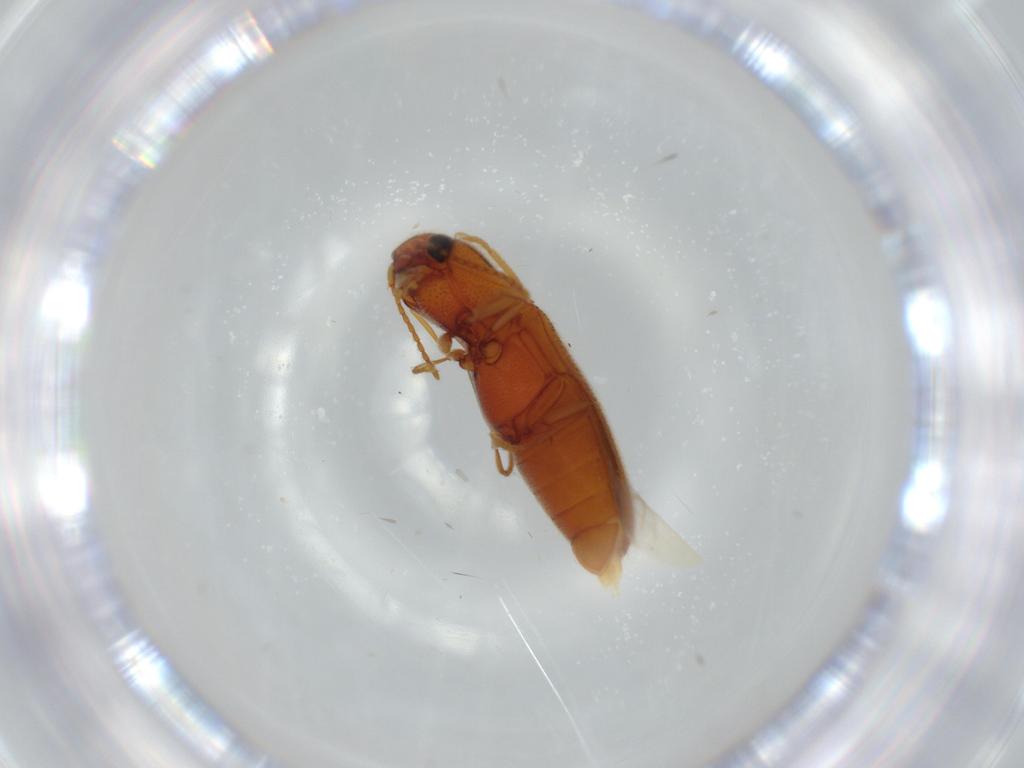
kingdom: Animalia
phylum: Arthropoda
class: Insecta
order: Coleoptera
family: Elateridae
